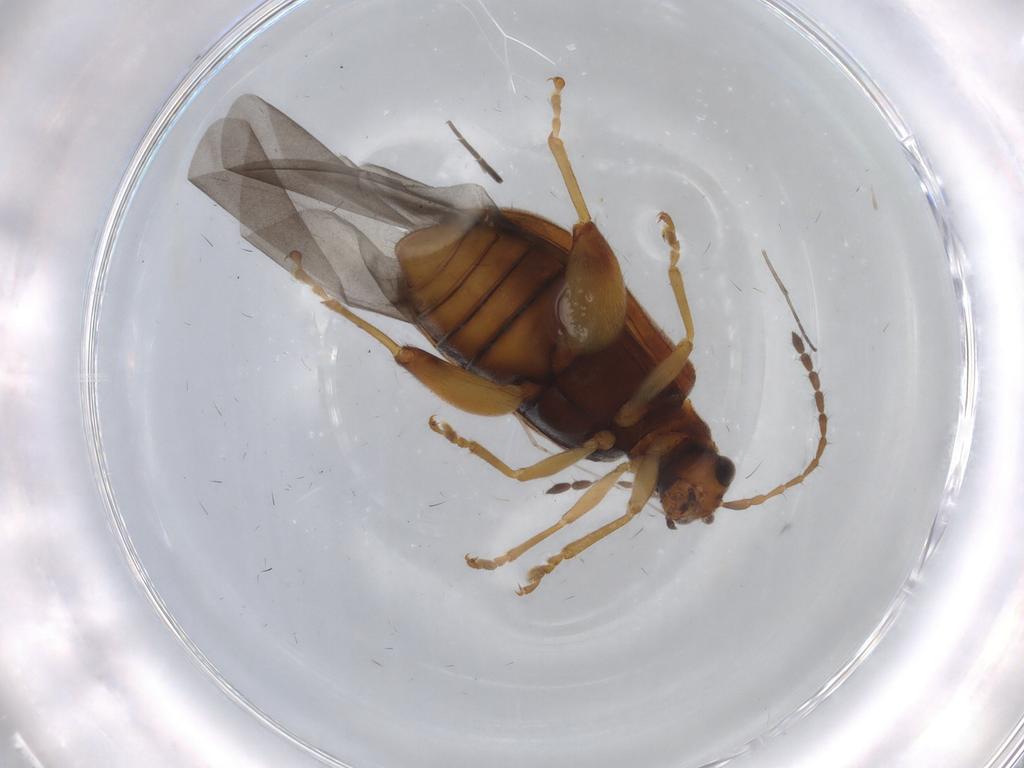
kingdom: Animalia
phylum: Arthropoda
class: Insecta
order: Coleoptera
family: Chrysomelidae
